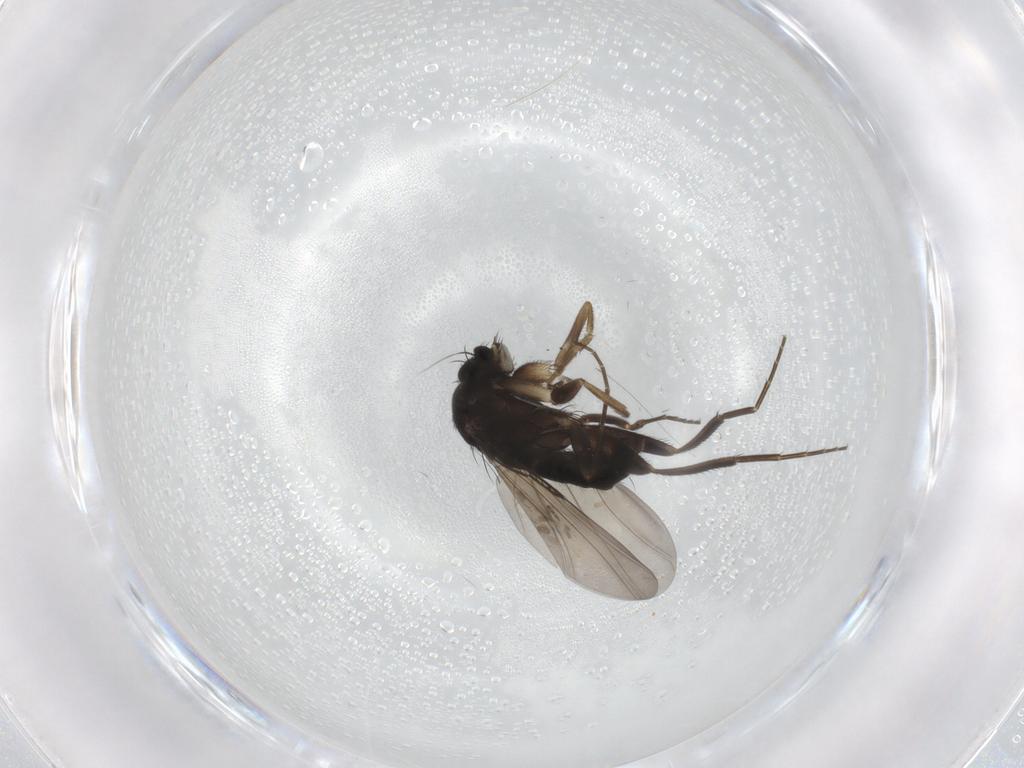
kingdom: Animalia
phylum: Arthropoda
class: Insecta
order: Diptera
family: Phoridae
